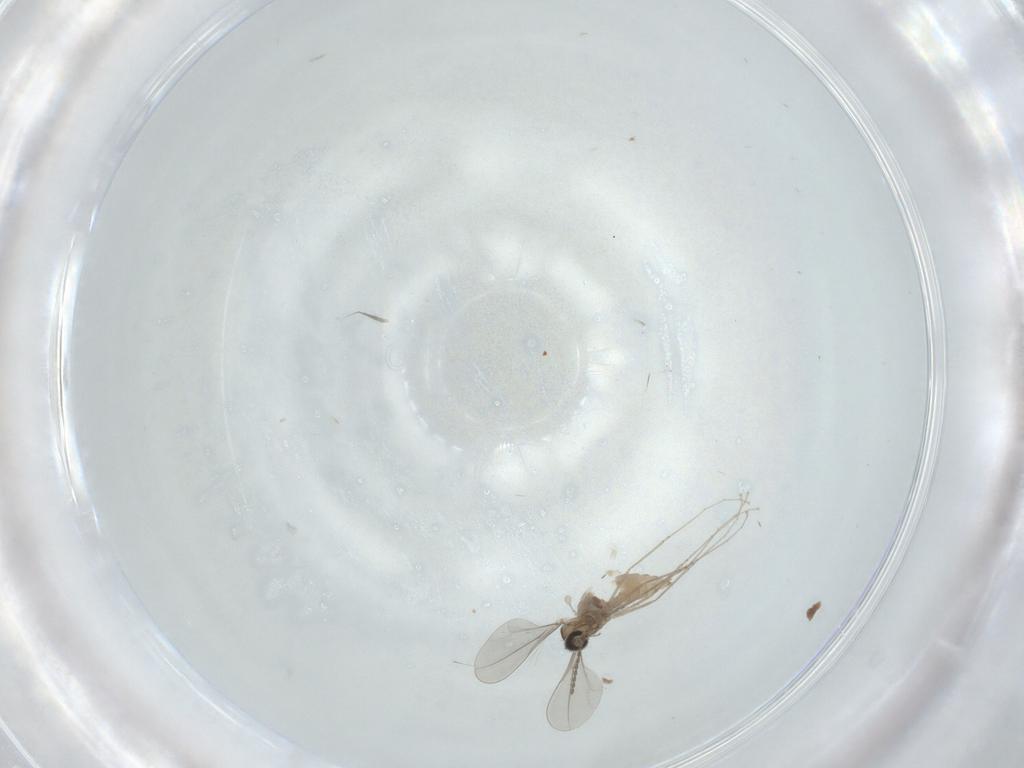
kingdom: Animalia
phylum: Arthropoda
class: Insecta
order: Diptera
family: Cecidomyiidae
